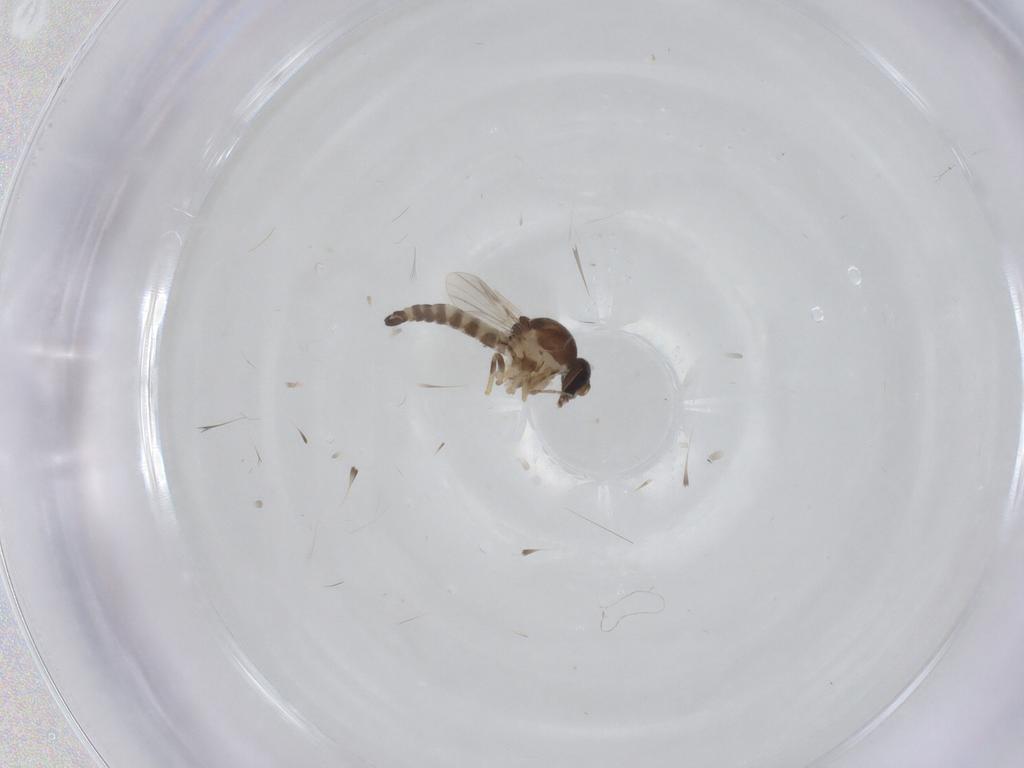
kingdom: Animalia
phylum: Arthropoda
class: Insecta
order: Diptera
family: Ceratopogonidae
